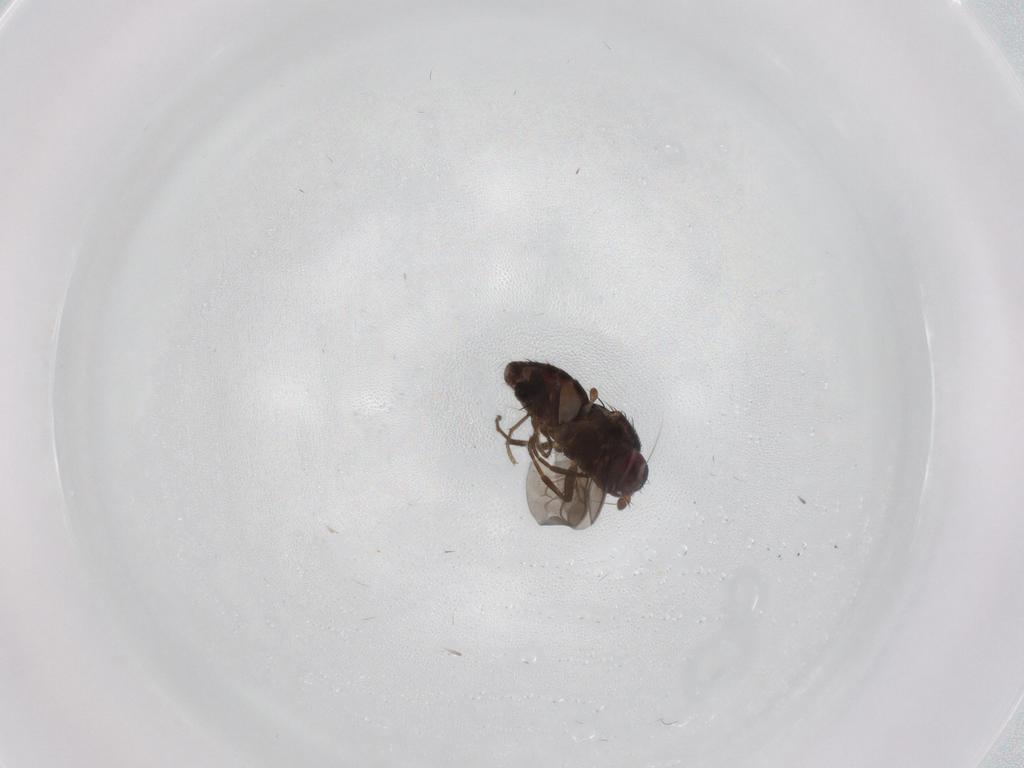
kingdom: Animalia
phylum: Arthropoda
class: Insecta
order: Diptera
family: Sphaeroceridae
